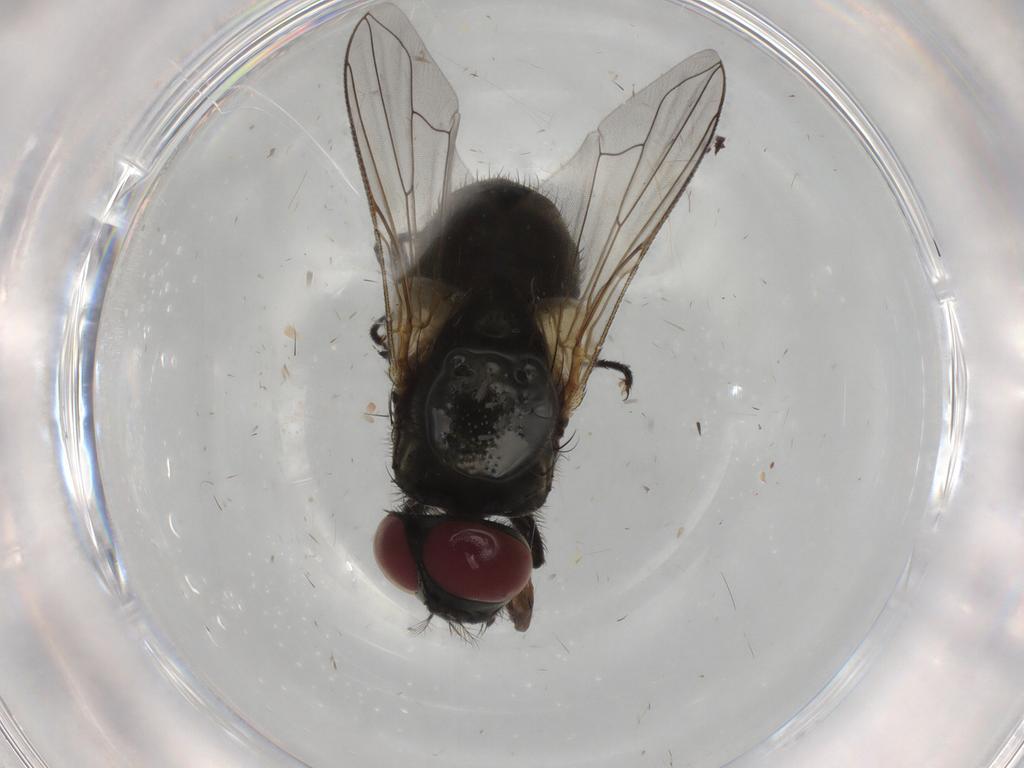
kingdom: Animalia
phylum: Arthropoda
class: Insecta
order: Diptera
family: Muscidae
